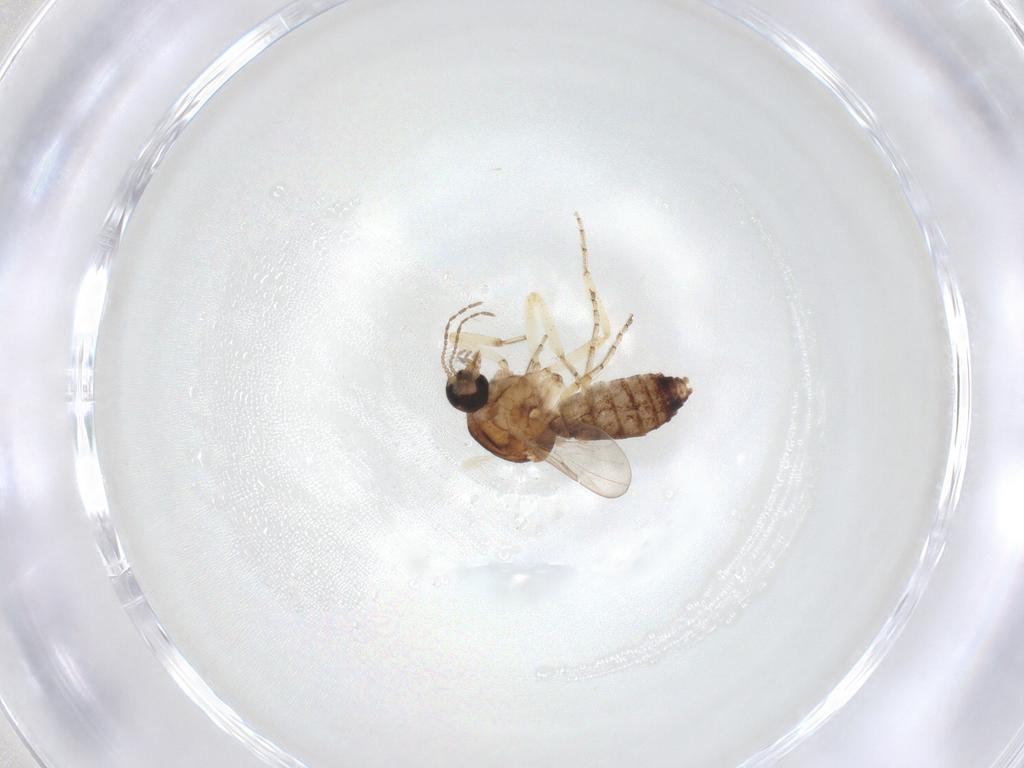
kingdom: Animalia
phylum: Arthropoda
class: Insecta
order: Diptera
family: Ceratopogonidae
